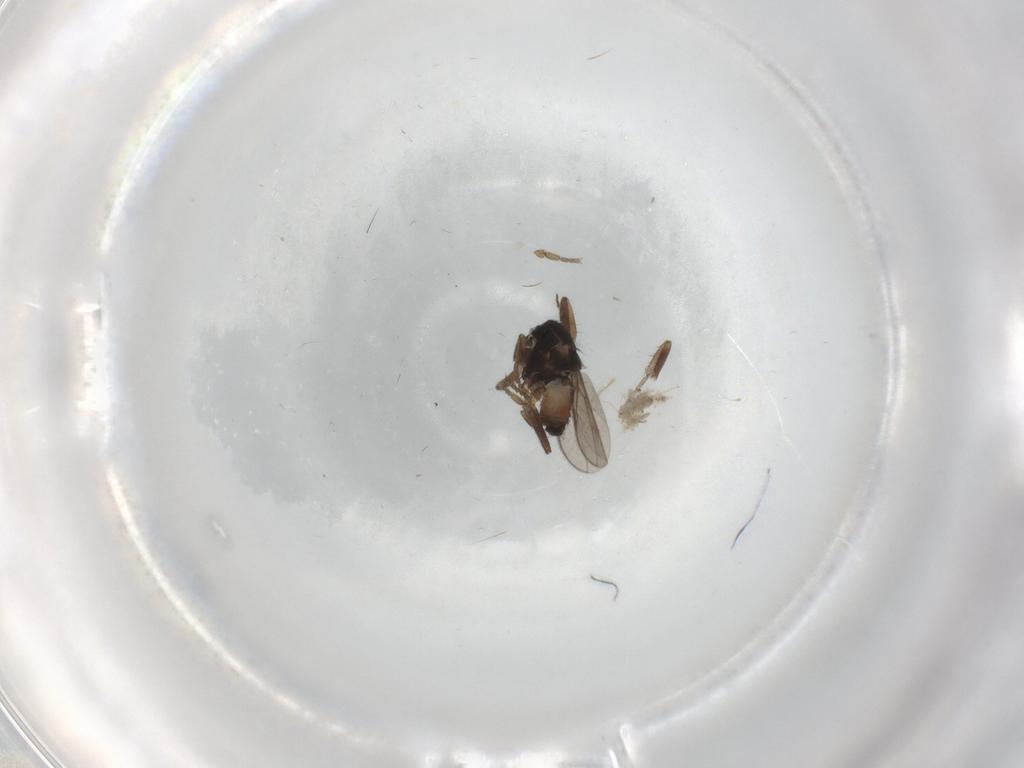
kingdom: Animalia
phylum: Arthropoda
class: Insecta
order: Diptera
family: Sphaeroceridae
